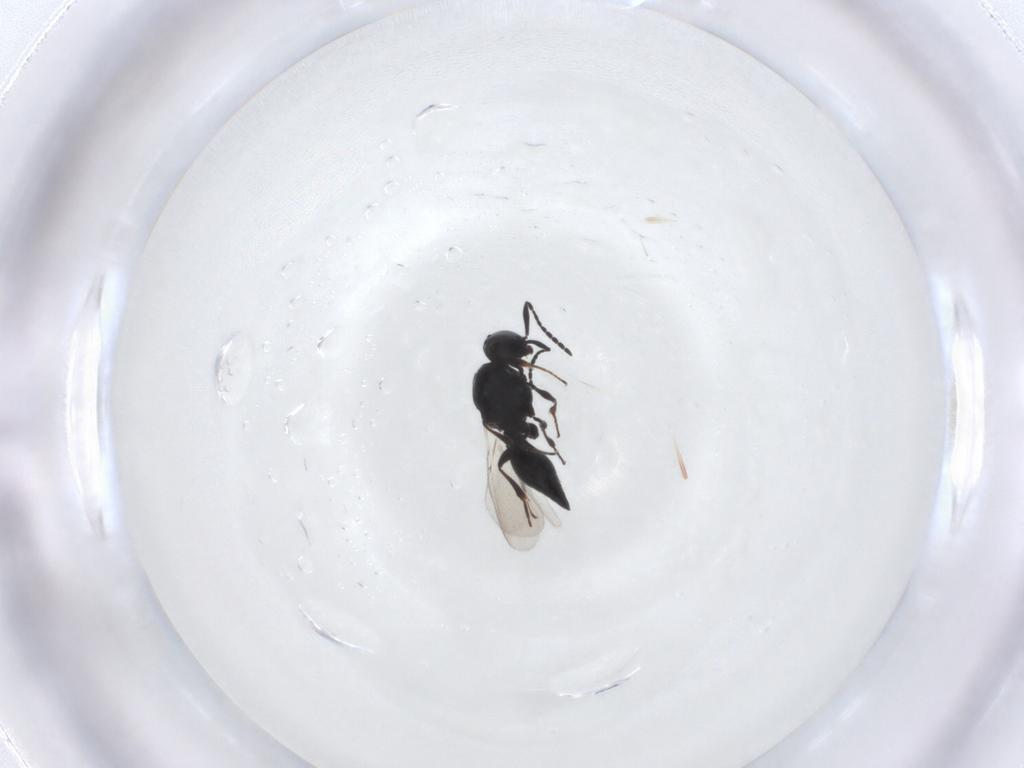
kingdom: Animalia
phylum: Arthropoda
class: Insecta
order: Hymenoptera
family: Platygastridae
